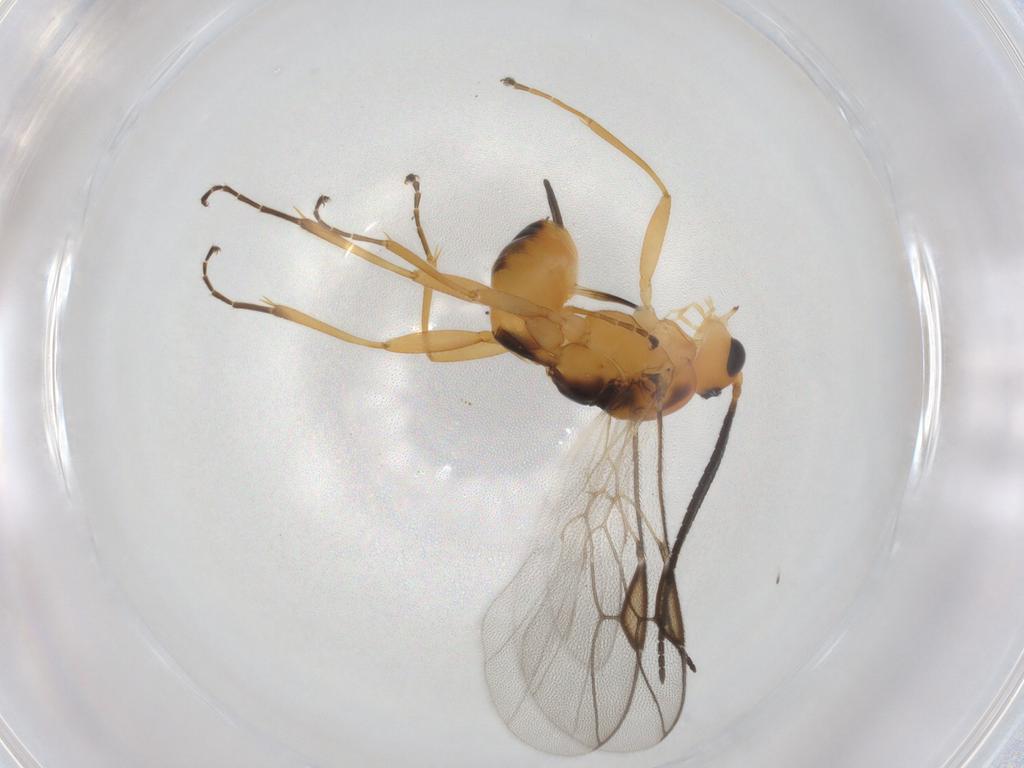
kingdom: Animalia
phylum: Arthropoda
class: Insecta
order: Hymenoptera
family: Braconidae
